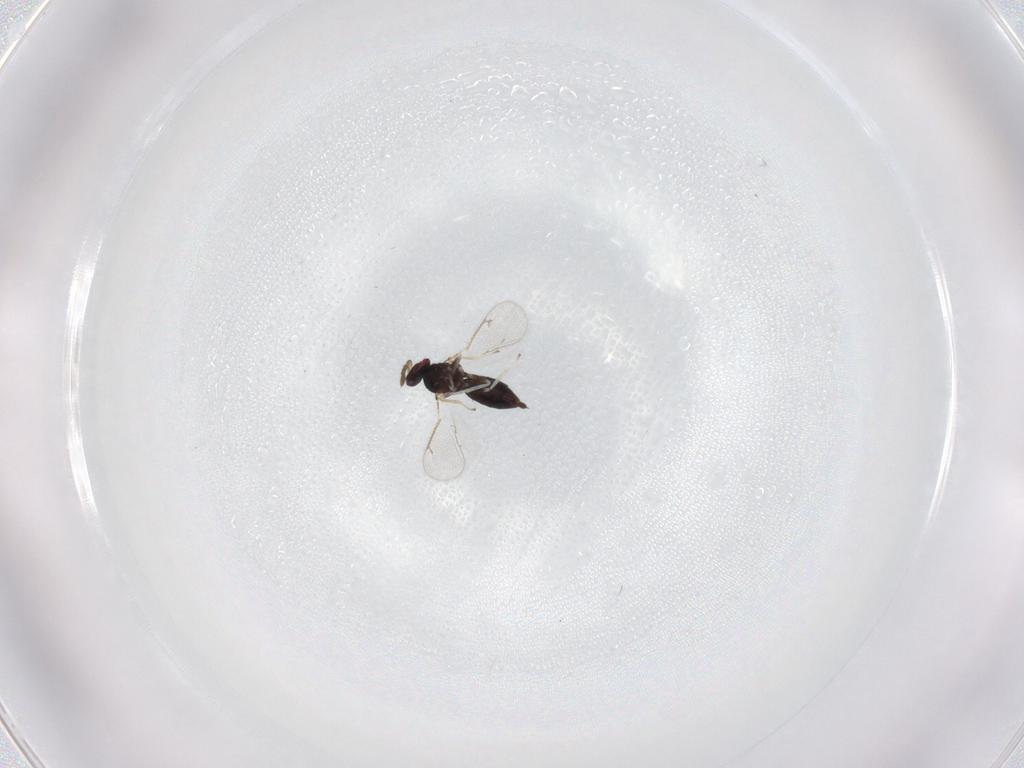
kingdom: Animalia
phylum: Arthropoda
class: Insecta
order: Hymenoptera
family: Eulophidae
